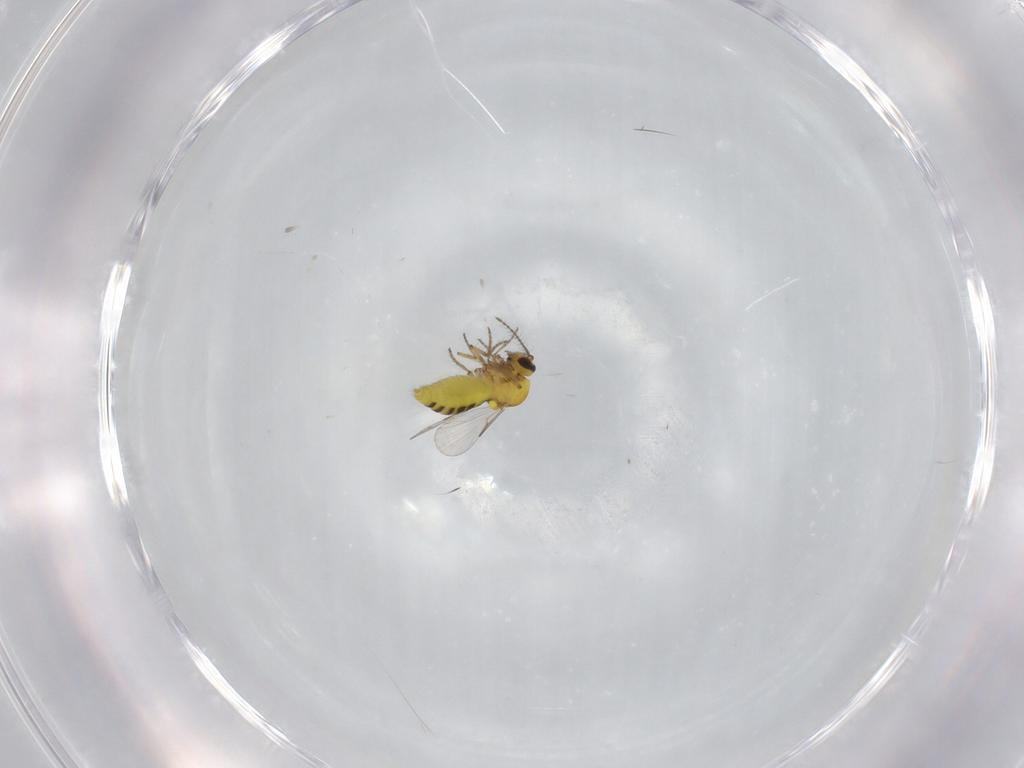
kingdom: Animalia
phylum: Arthropoda
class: Insecta
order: Diptera
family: Ceratopogonidae
